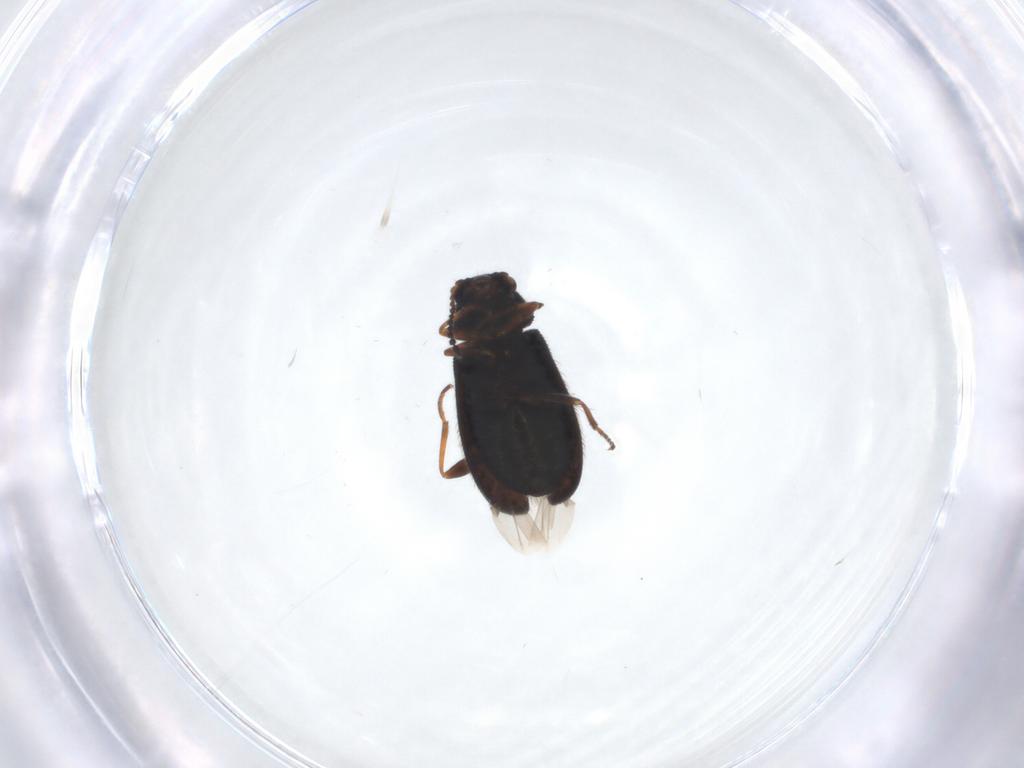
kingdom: Animalia
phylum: Arthropoda
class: Insecta
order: Coleoptera
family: Melyridae
